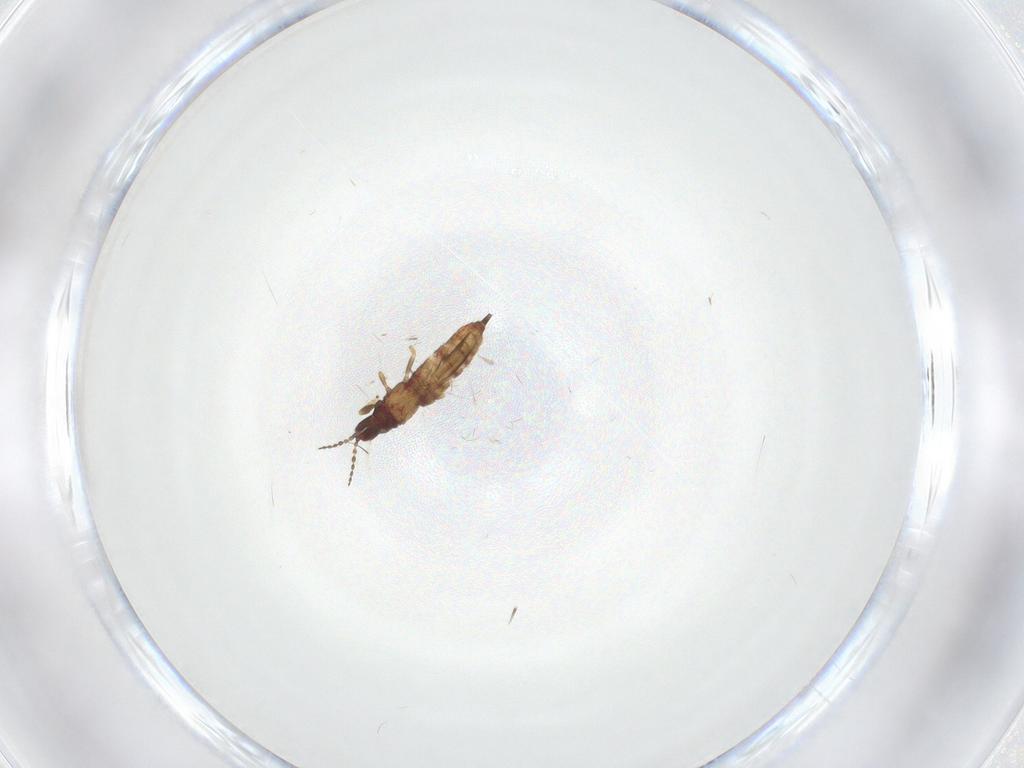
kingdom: Animalia
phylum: Arthropoda
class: Insecta
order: Thysanoptera
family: Phlaeothripidae
